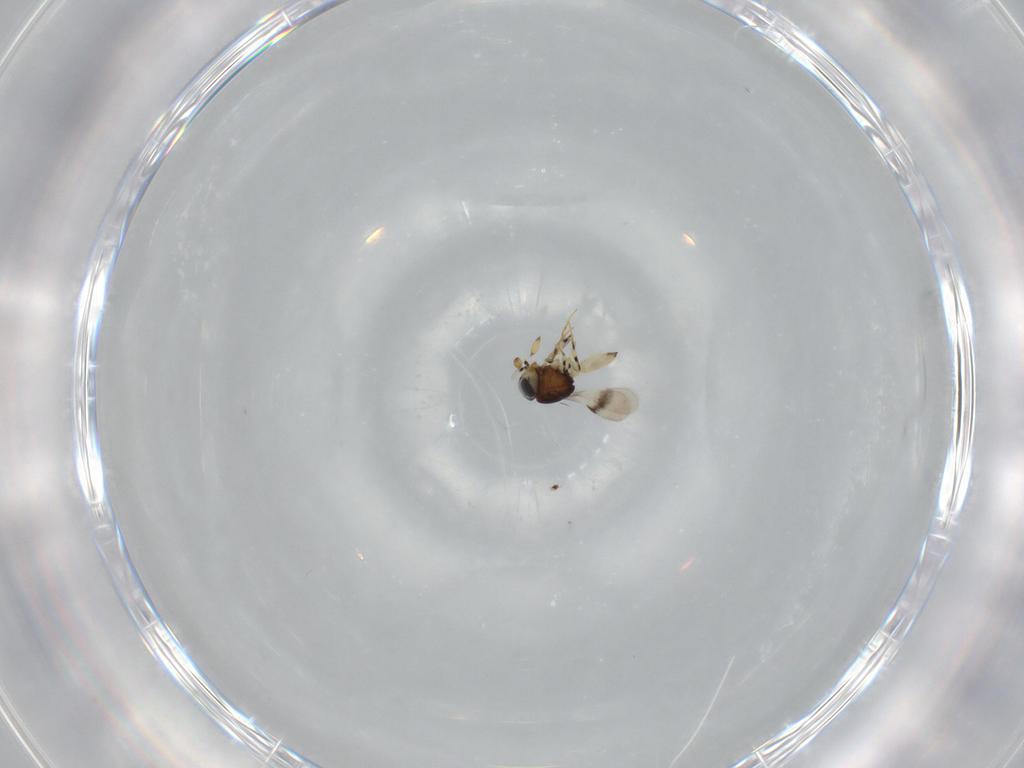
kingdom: Animalia
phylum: Arthropoda
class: Insecta
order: Hymenoptera
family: Scelionidae
